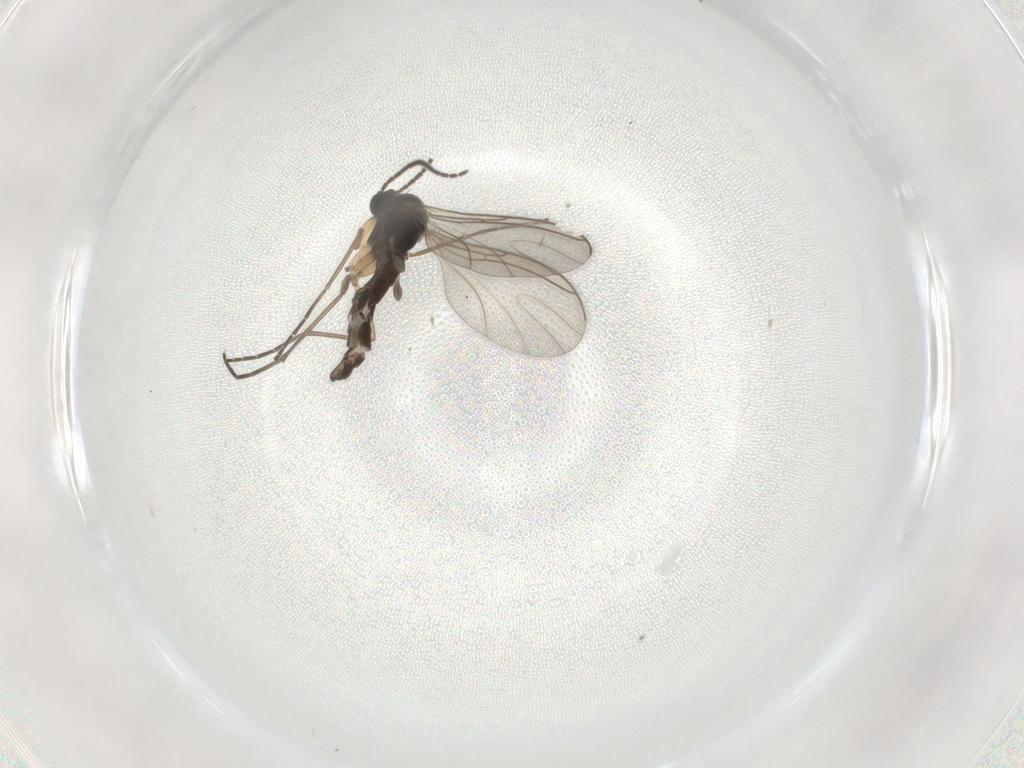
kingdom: Animalia
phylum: Arthropoda
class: Insecta
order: Diptera
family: Sciaridae
